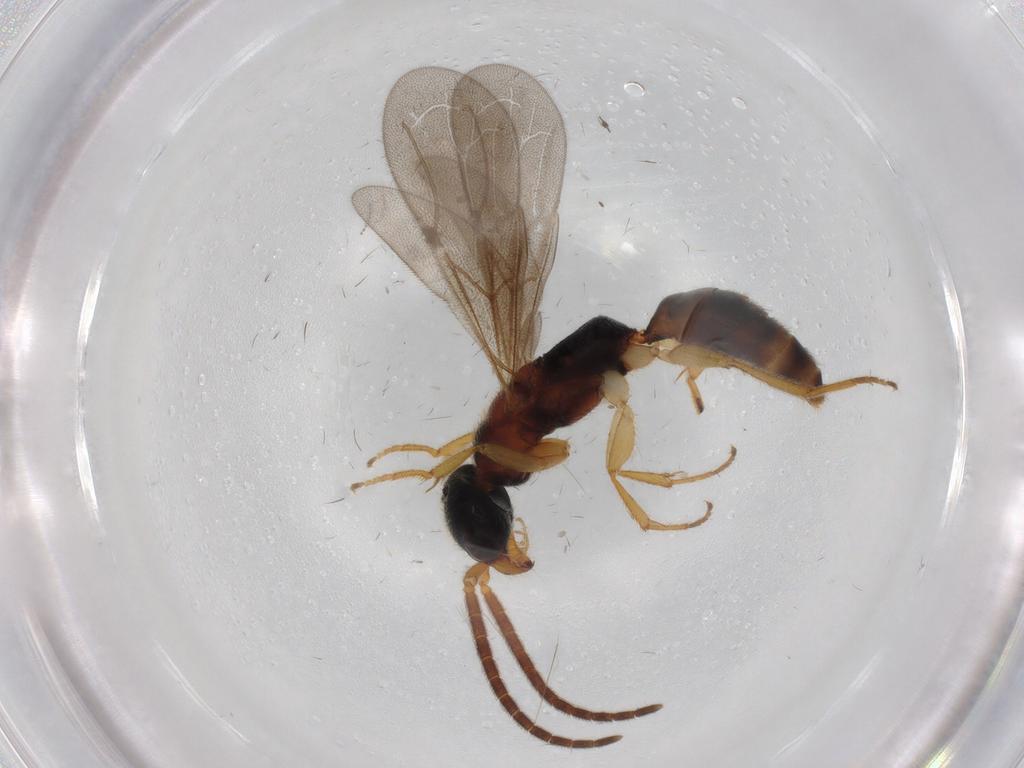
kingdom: Animalia
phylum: Arthropoda
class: Insecta
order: Hymenoptera
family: Bethylidae
